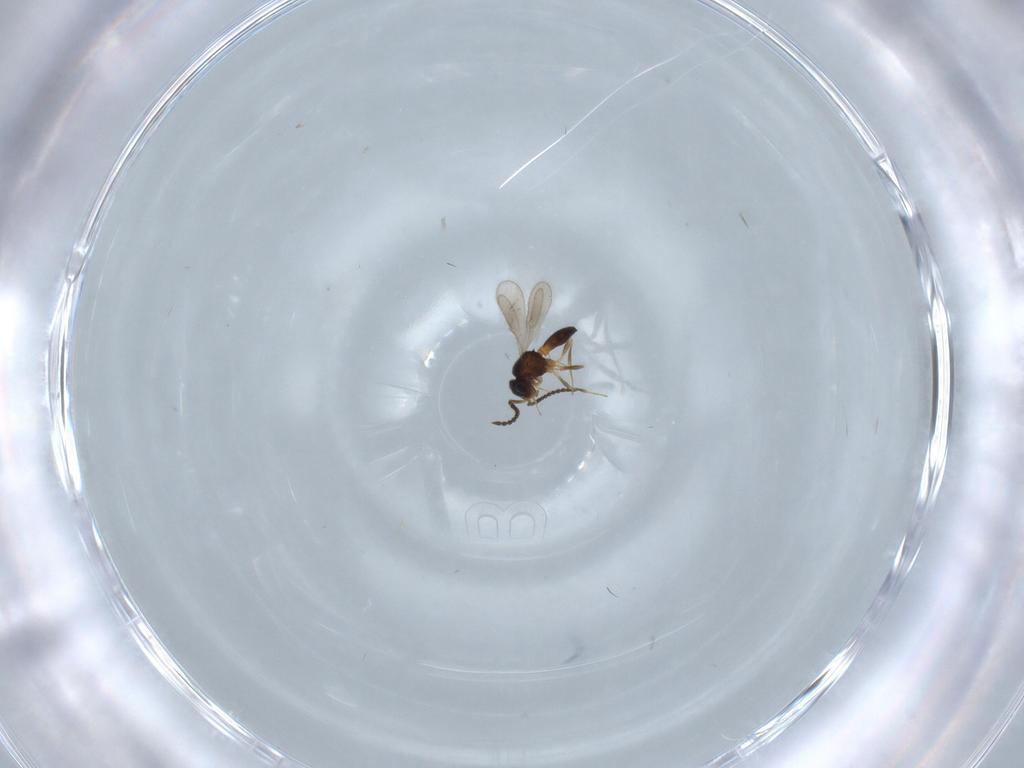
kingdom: Animalia
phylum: Arthropoda
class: Insecta
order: Hymenoptera
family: Scelionidae
